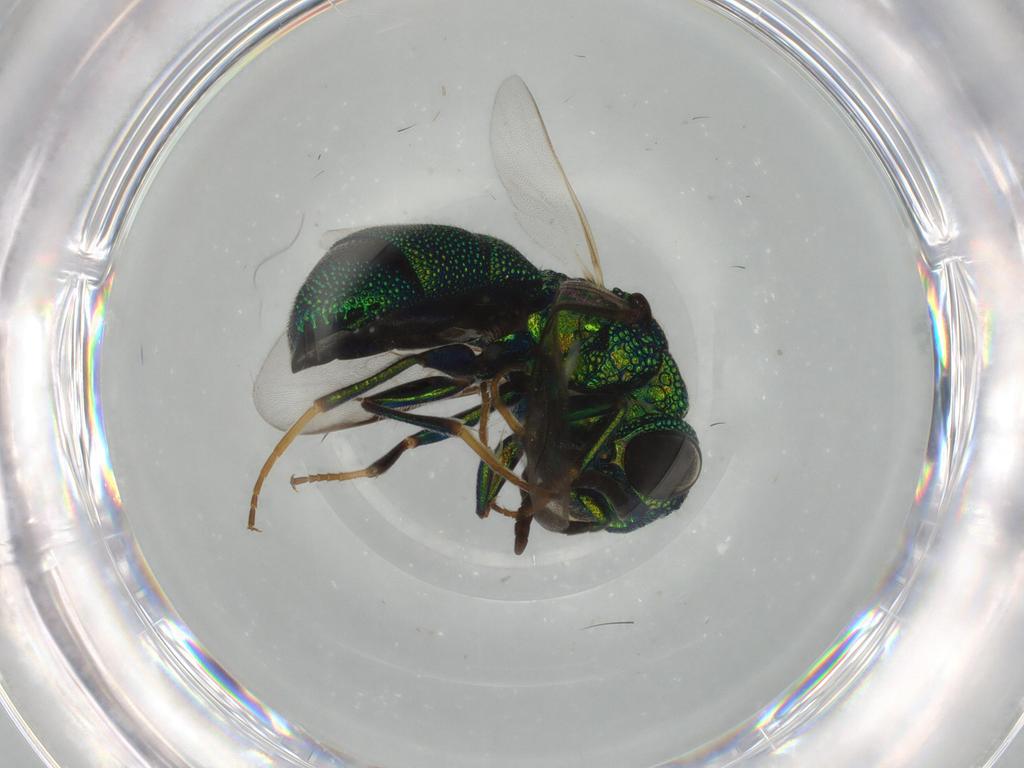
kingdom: Animalia
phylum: Arthropoda
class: Insecta
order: Hymenoptera
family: Chrysididae
